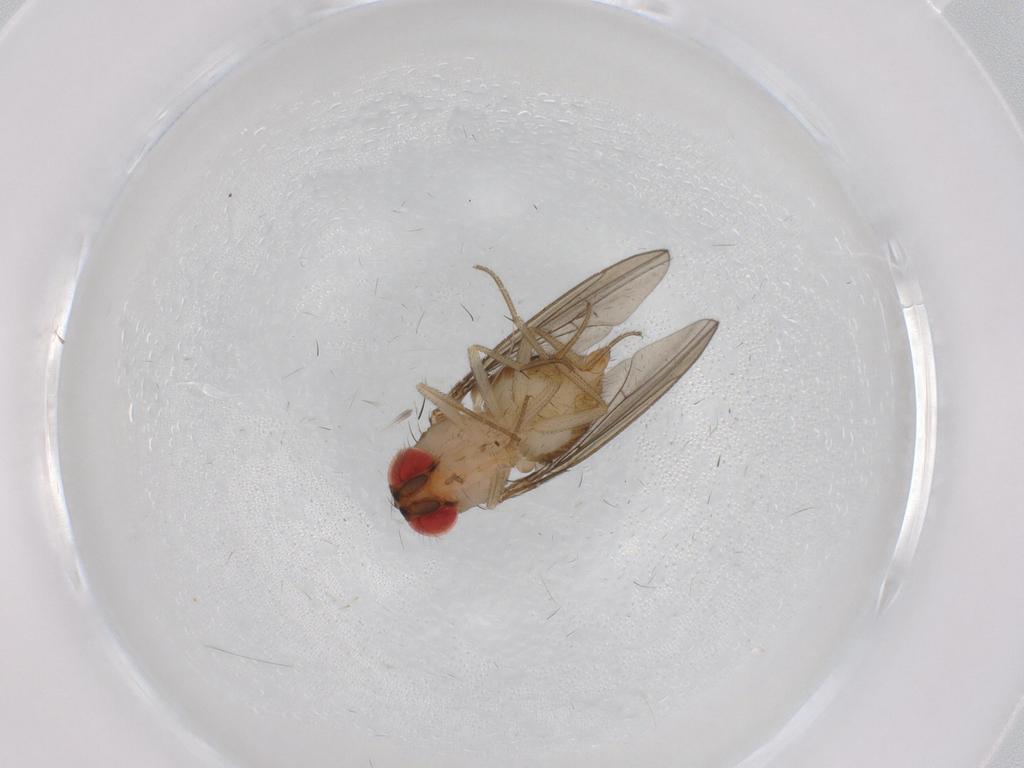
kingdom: Animalia
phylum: Arthropoda
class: Insecta
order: Diptera
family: Drosophilidae
